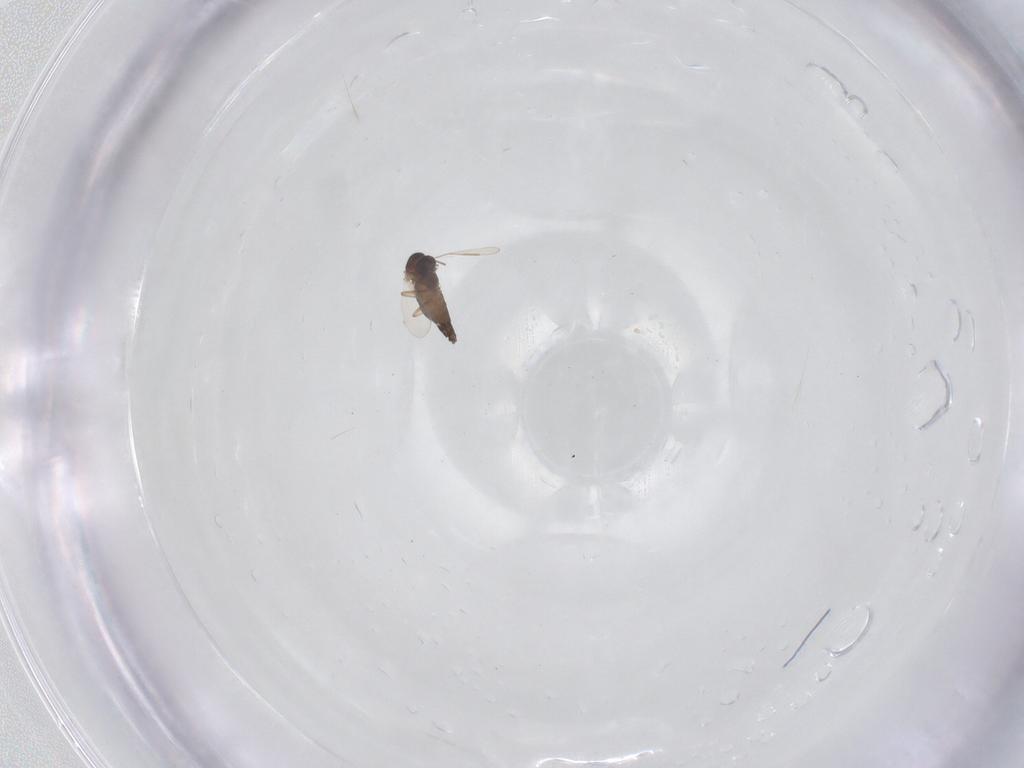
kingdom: Animalia
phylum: Arthropoda
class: Insecta
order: Diptera
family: Chironomidae
